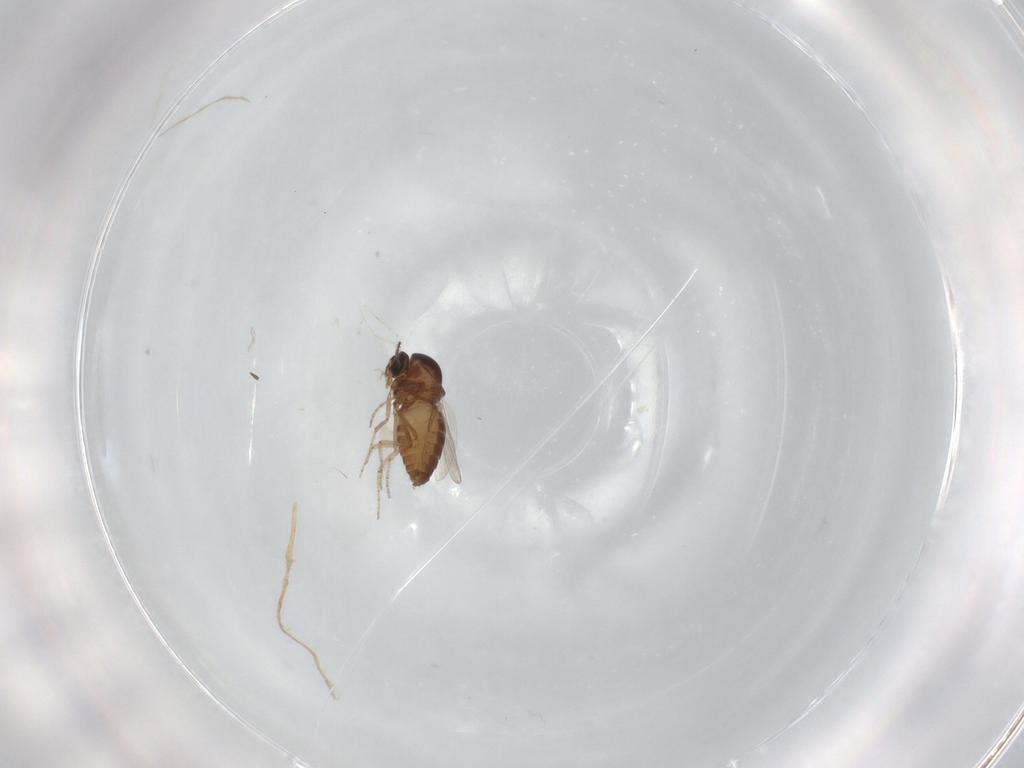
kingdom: Animalia
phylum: Arthropoda
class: Insecta
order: Diptera
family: Ceratopogonidae
